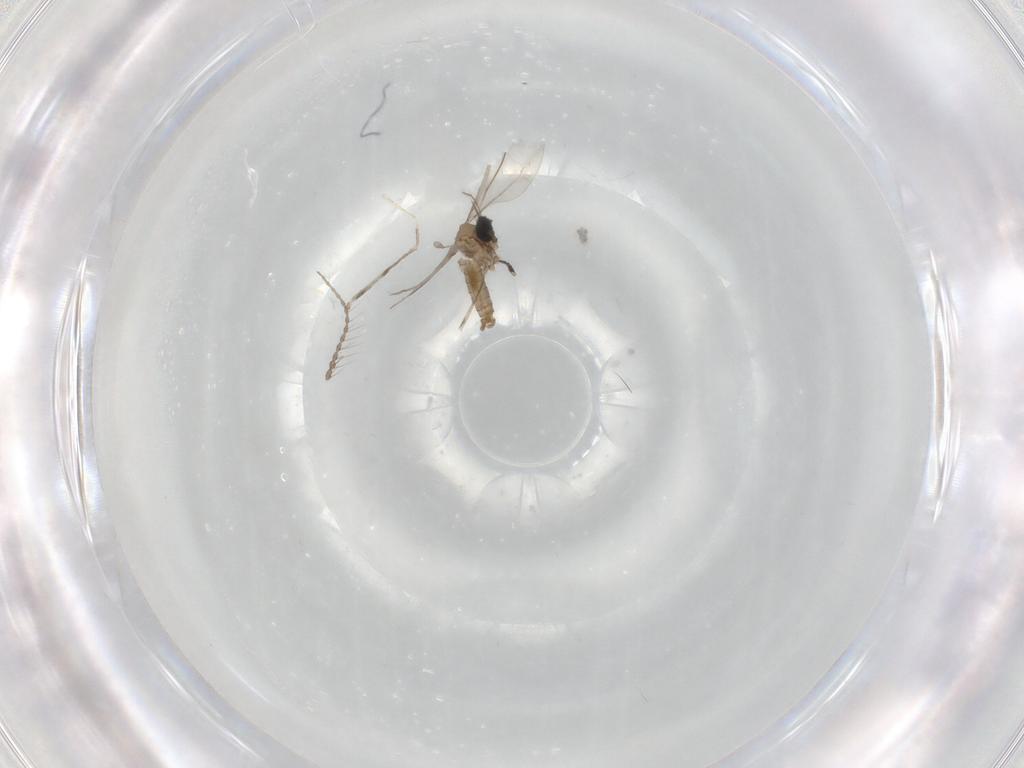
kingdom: Animalia
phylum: Arthropoda
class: Insecta
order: Diptera
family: Limoniidae
